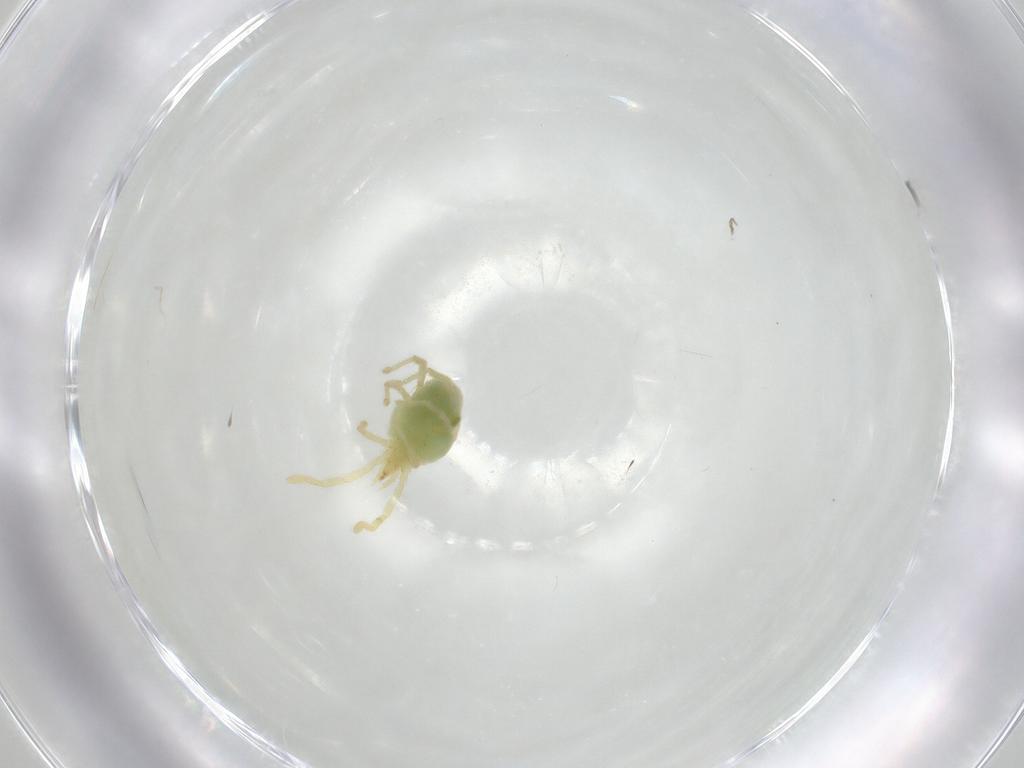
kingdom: Animalia
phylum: Arthropoda
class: Arachnida
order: Trombidiformes
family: Erythraeidae
